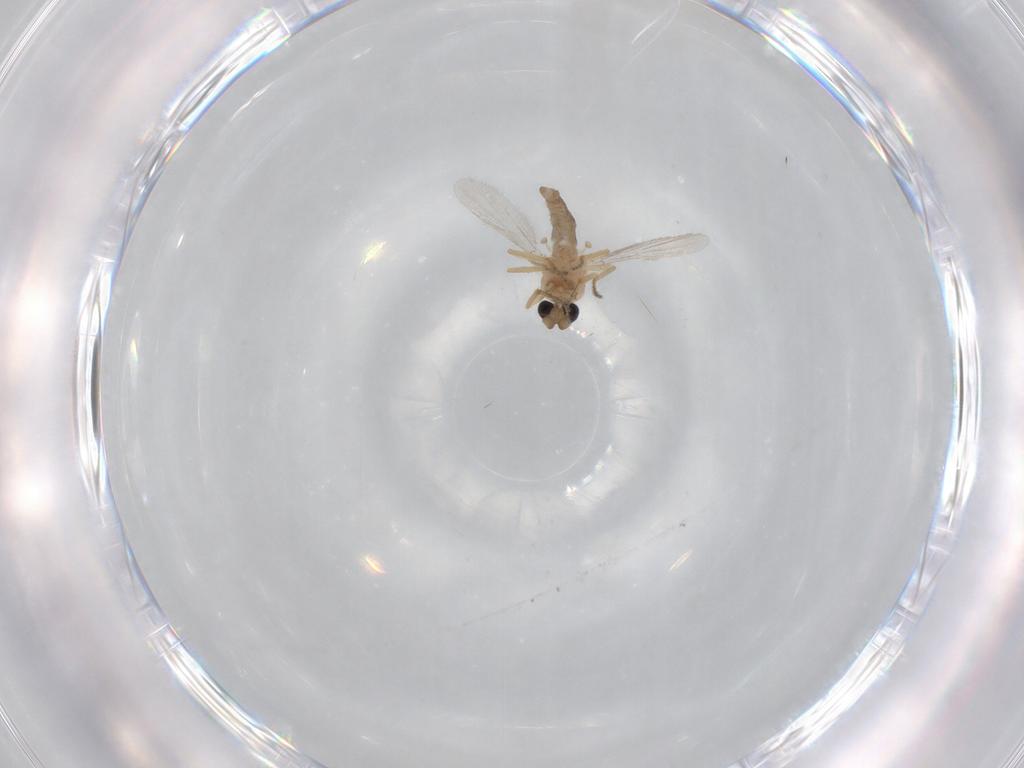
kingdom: Animalia
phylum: Arthropoda
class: Insecta
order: Diptera
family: Ceratopogonidae
